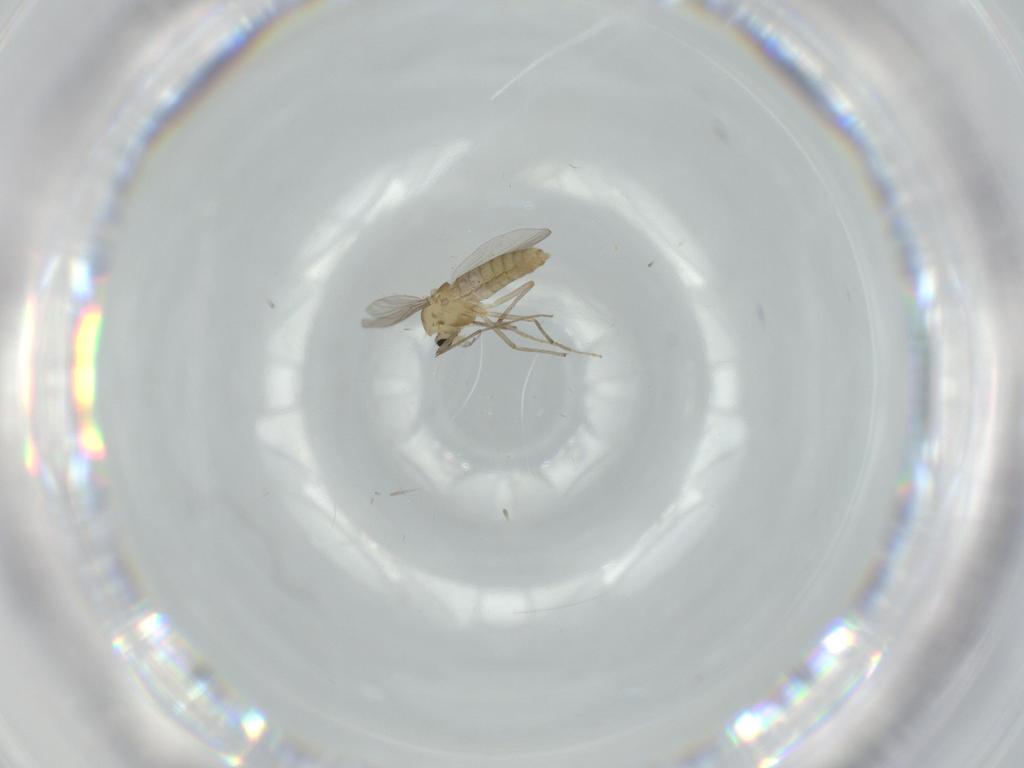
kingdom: Animalia
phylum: Arthropoda
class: Insecta
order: Diptera
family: Chironomidae
